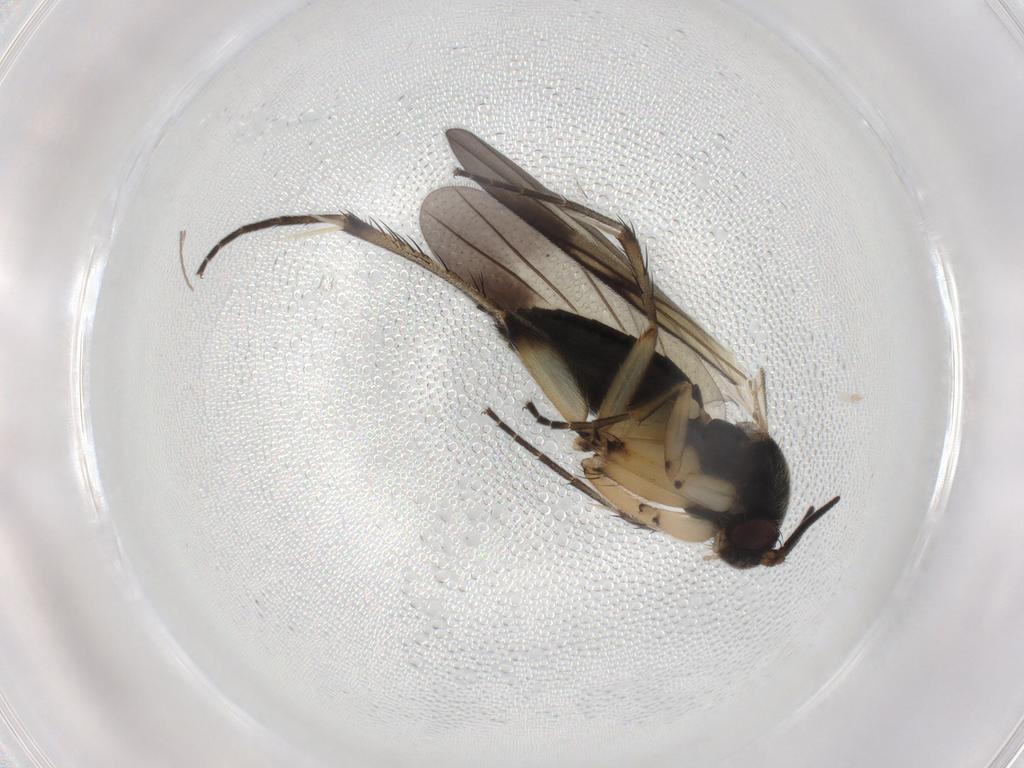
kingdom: Animalia
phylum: Arthropoda
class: Insecta
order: Diptera
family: Mycetophilidae
